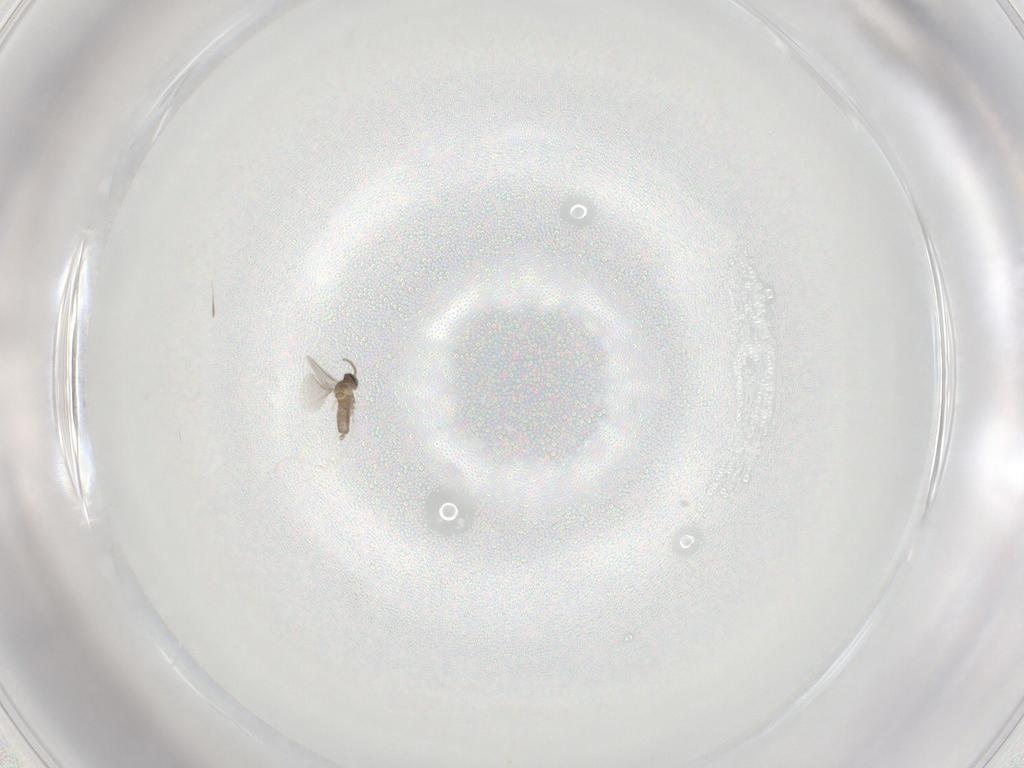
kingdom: Animalia
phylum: Arthropoda
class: Insecta
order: Diptera
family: Cecidomyiidae
